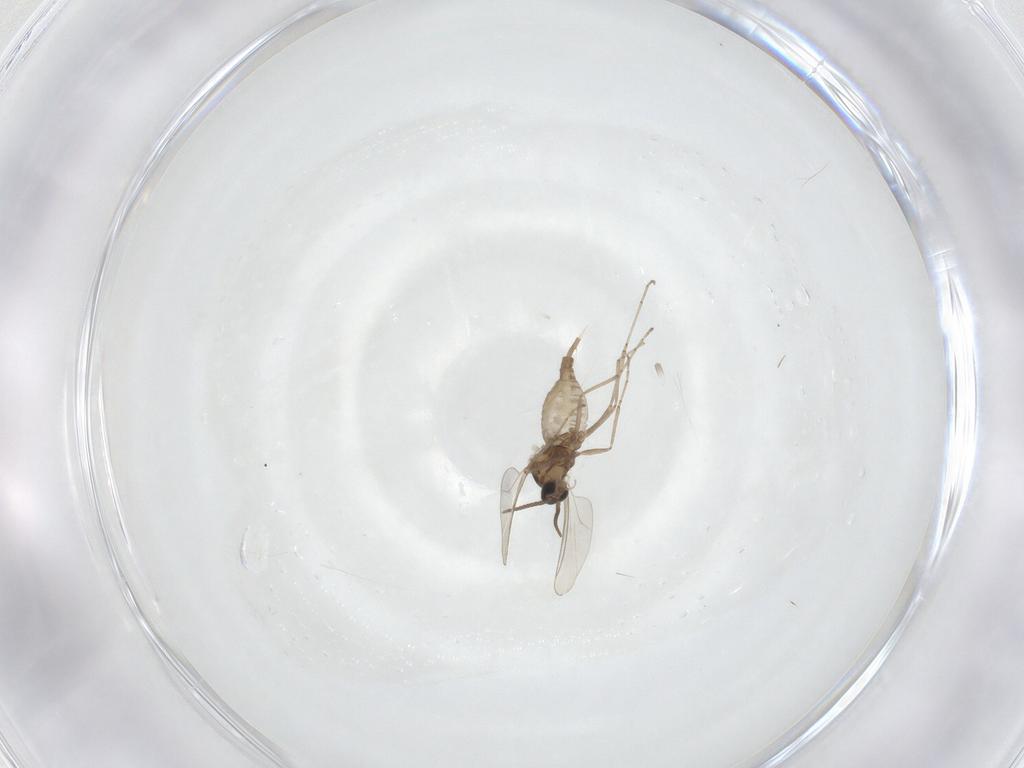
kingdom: Animalia
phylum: Arthropoda
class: Insecta
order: Diptera
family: Cecidomyiidae
